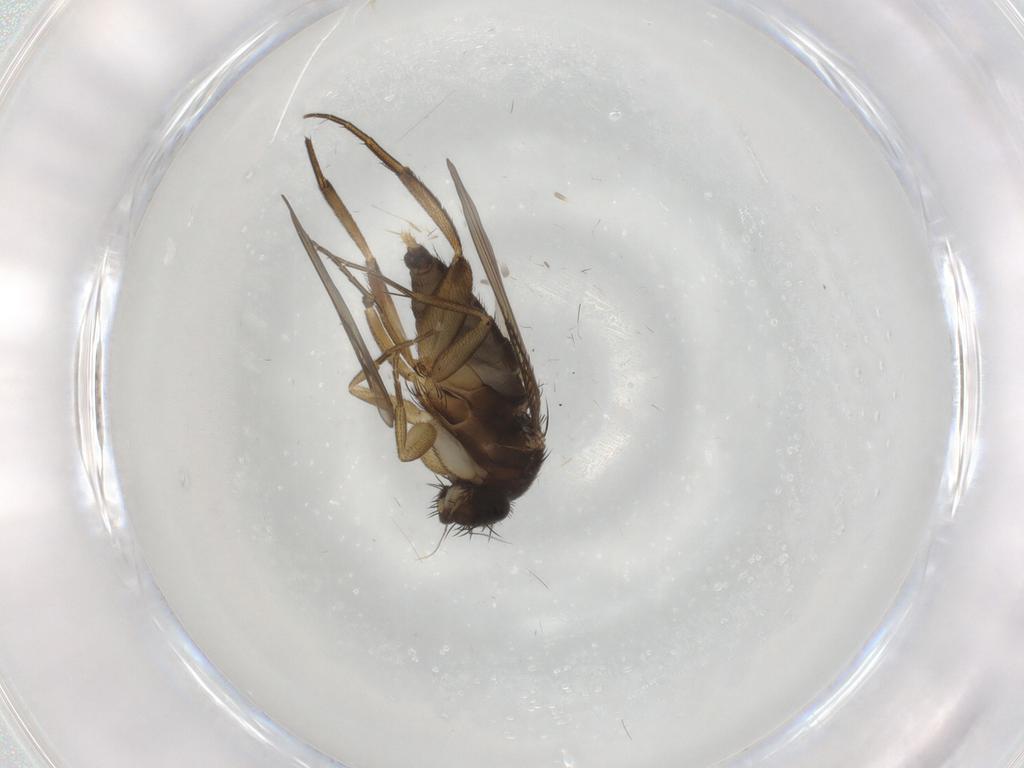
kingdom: Animalia
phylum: Arthropoda
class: Insecta
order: Diptera
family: Phoridae
